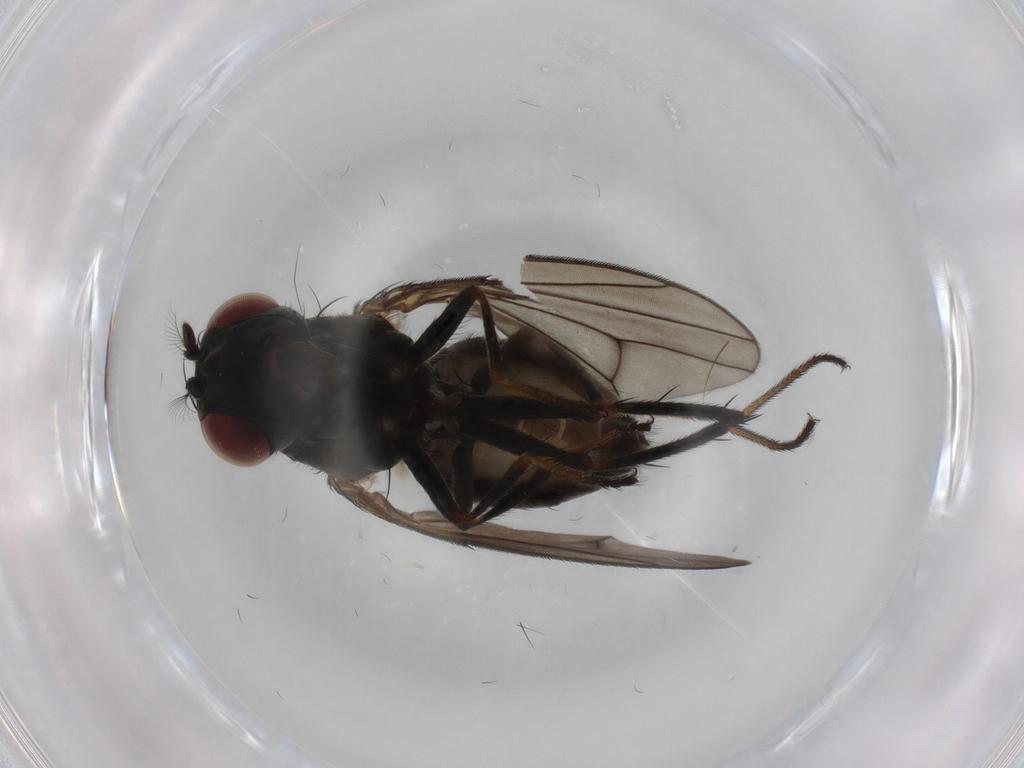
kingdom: Animalia
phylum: Arthropoda
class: Insecta
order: Diptera
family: Ephydridae
